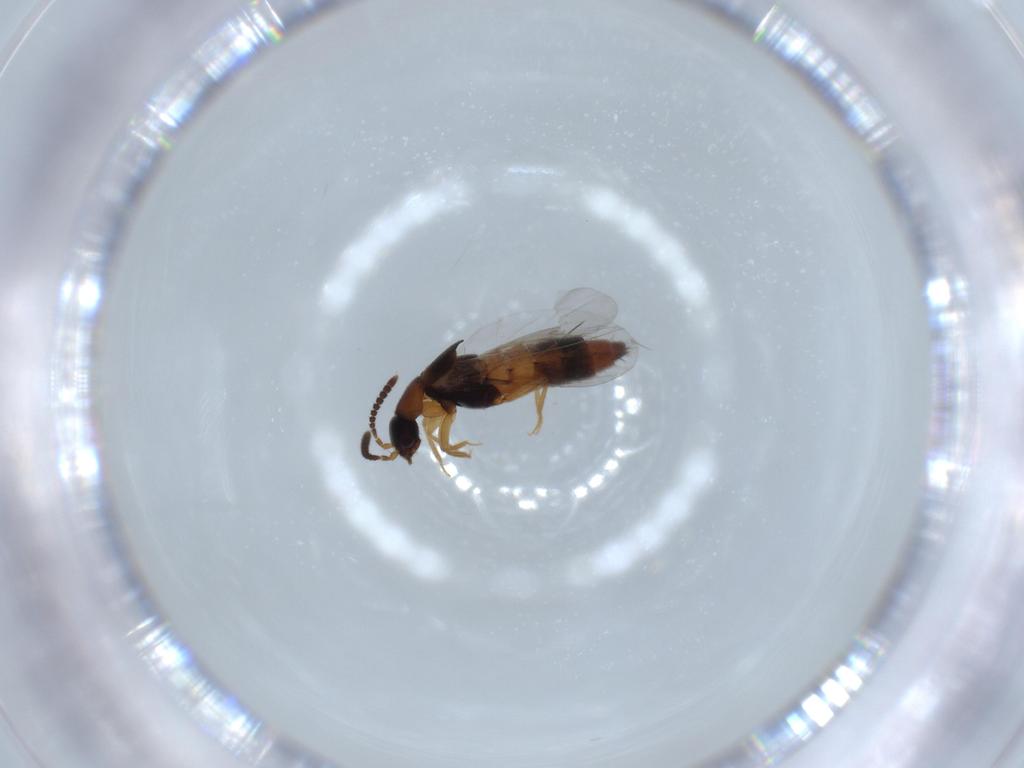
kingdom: Animalia
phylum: Arthropoda
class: Insecta
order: Coleoptera
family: Staphylinidae
